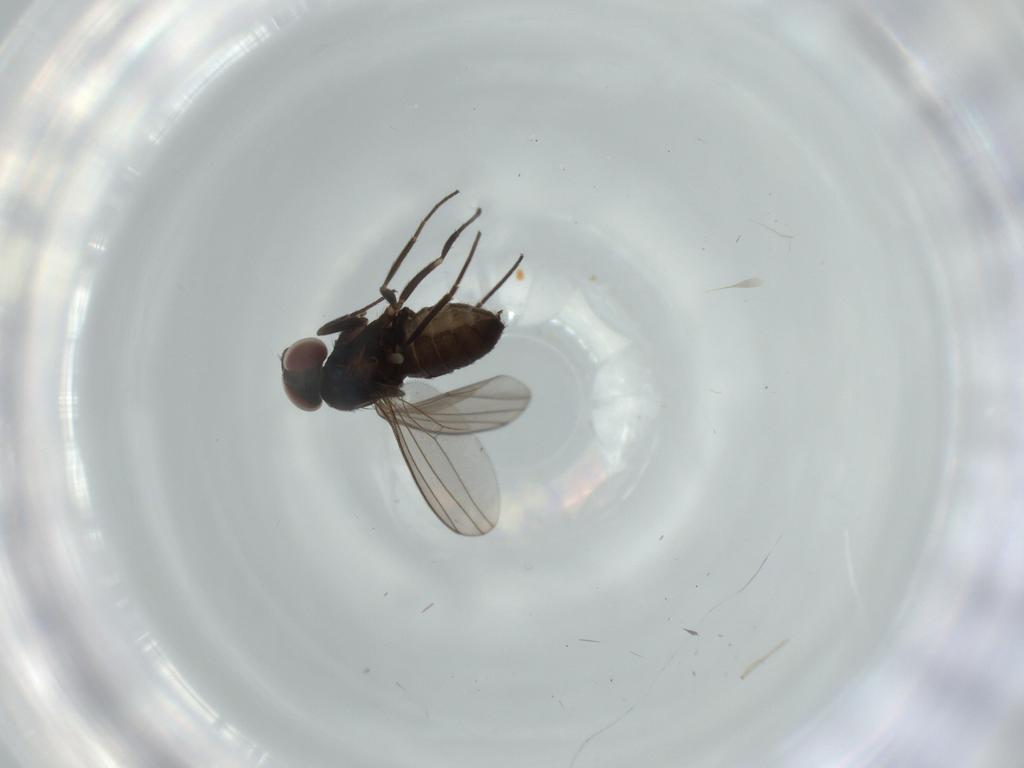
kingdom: Animalia
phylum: Arthropoda
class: Insecta
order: Diptera
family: Dolichopodidae
